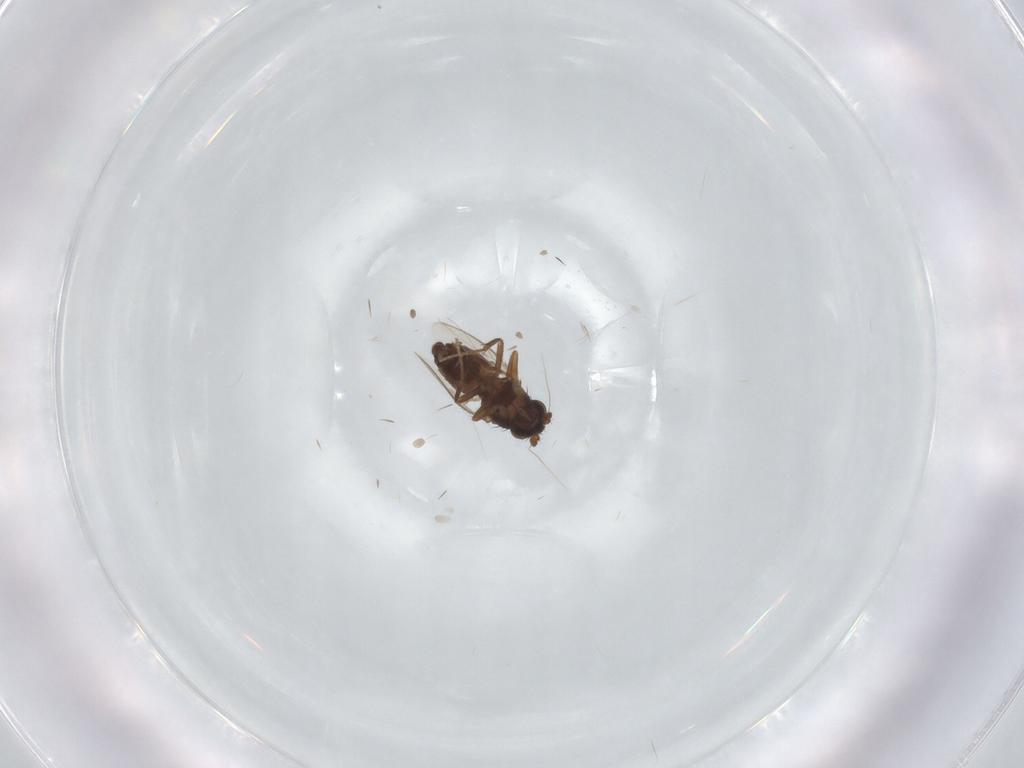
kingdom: Animalia
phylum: Arthropoda
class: Insecta
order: Diptera
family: Sphaeroceridae
